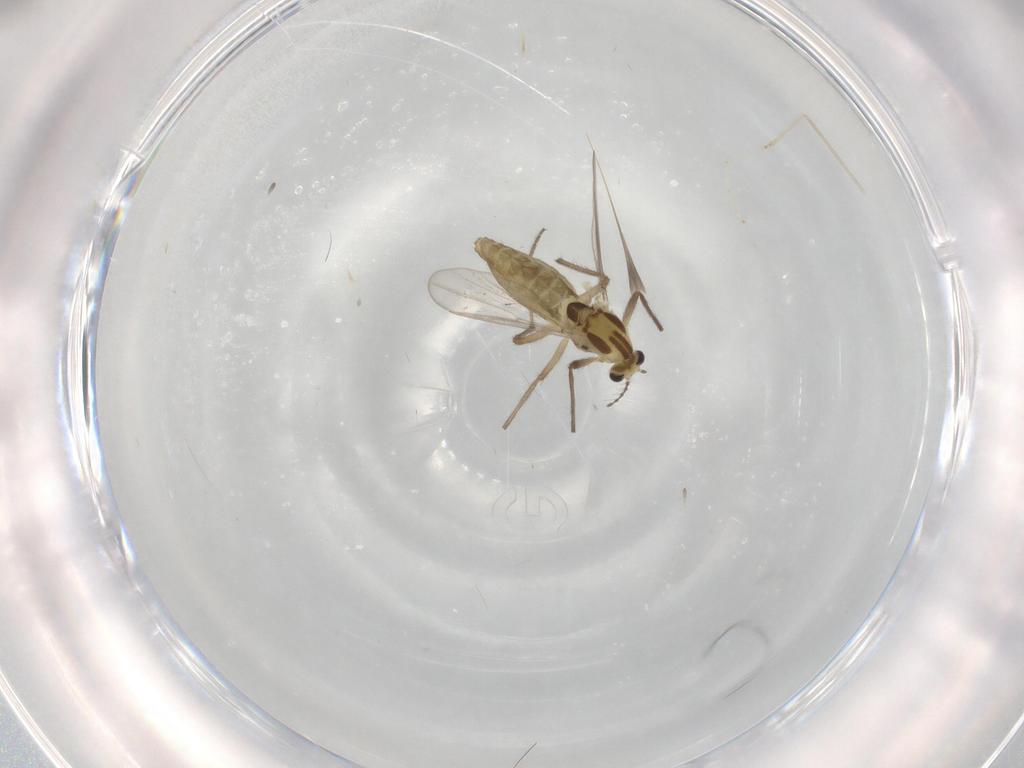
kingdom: Animalia
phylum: Arthropoda
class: Insecta
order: Diptera
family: Chironomidae
